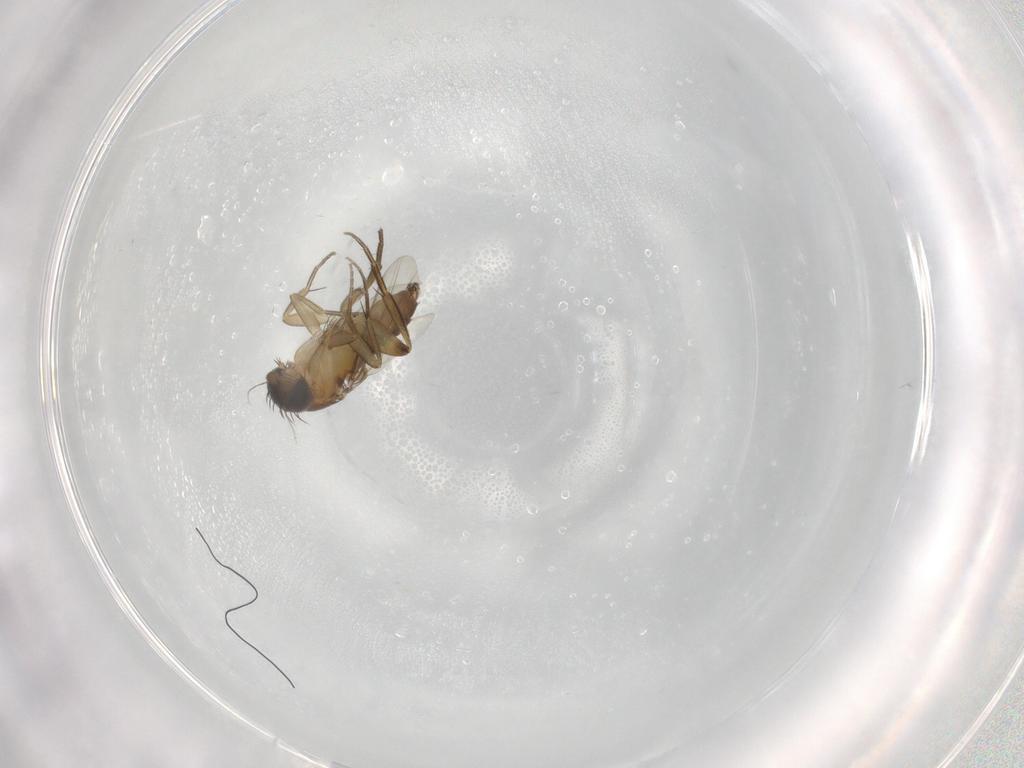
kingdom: Animalia
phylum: Arthropoda
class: Insecta
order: Diptera
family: Phoridae
